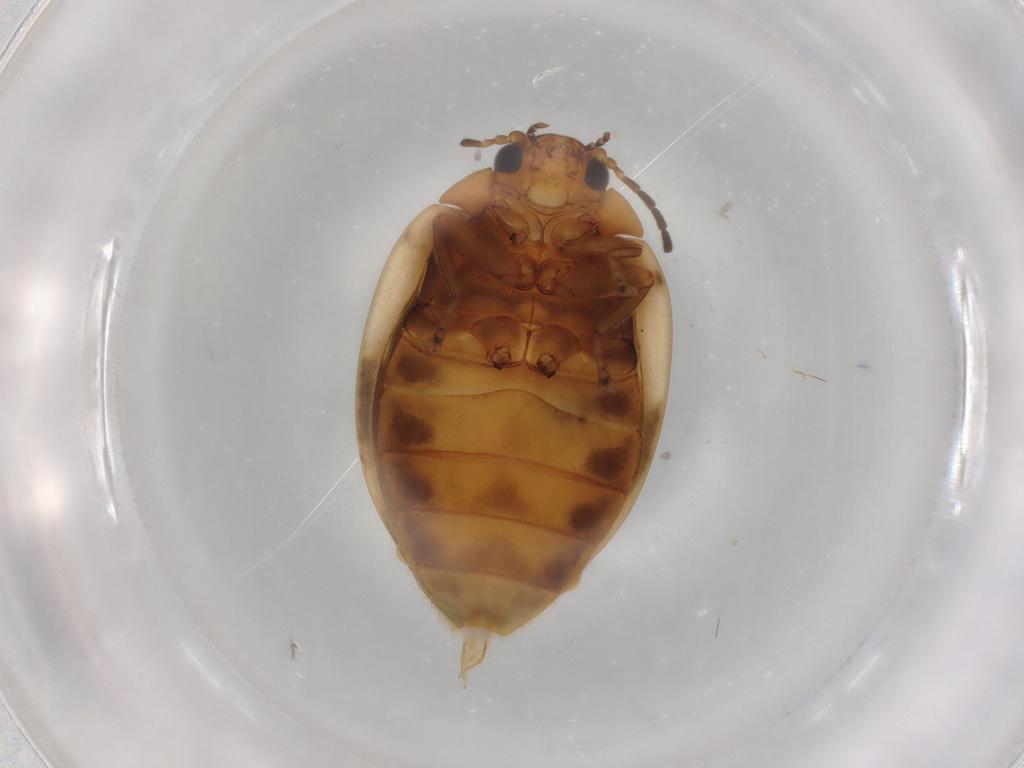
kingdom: Animalia
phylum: Arthropoda
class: Insecta
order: Coleoptera
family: Scirtidae
